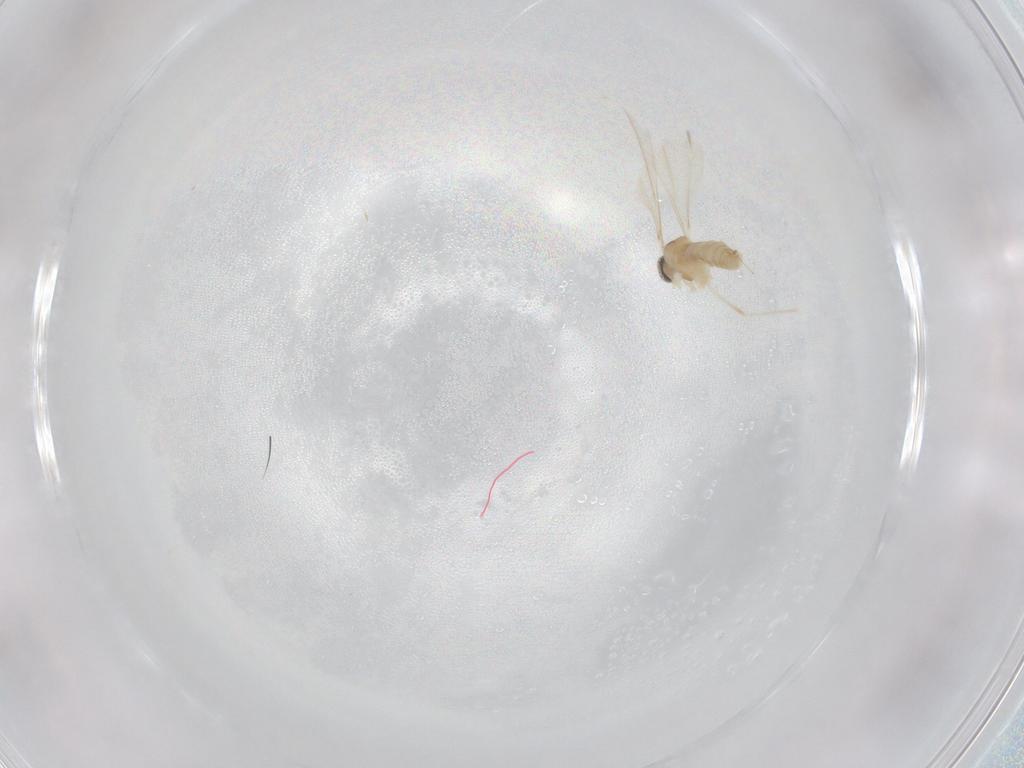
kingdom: Animalia
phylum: Arthropoda
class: Insecta
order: Diptera
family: Cecidomyiidae
